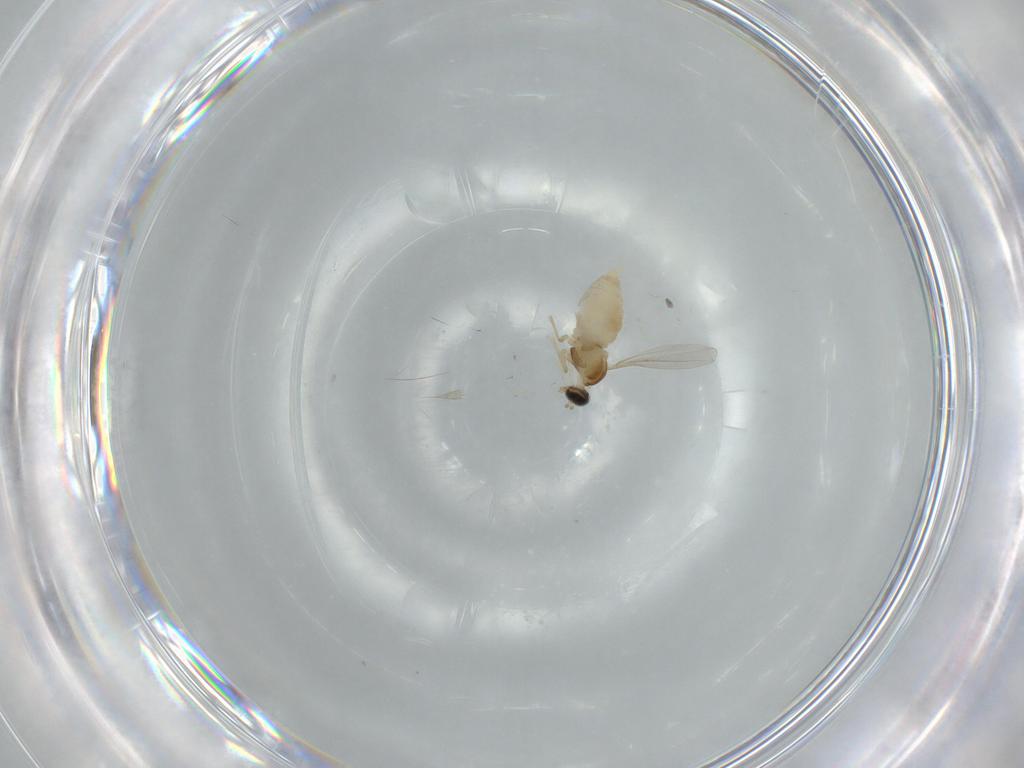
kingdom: Animalia
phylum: Arthropoda
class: Insecta
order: Diptera
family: Cecidomyiidae
